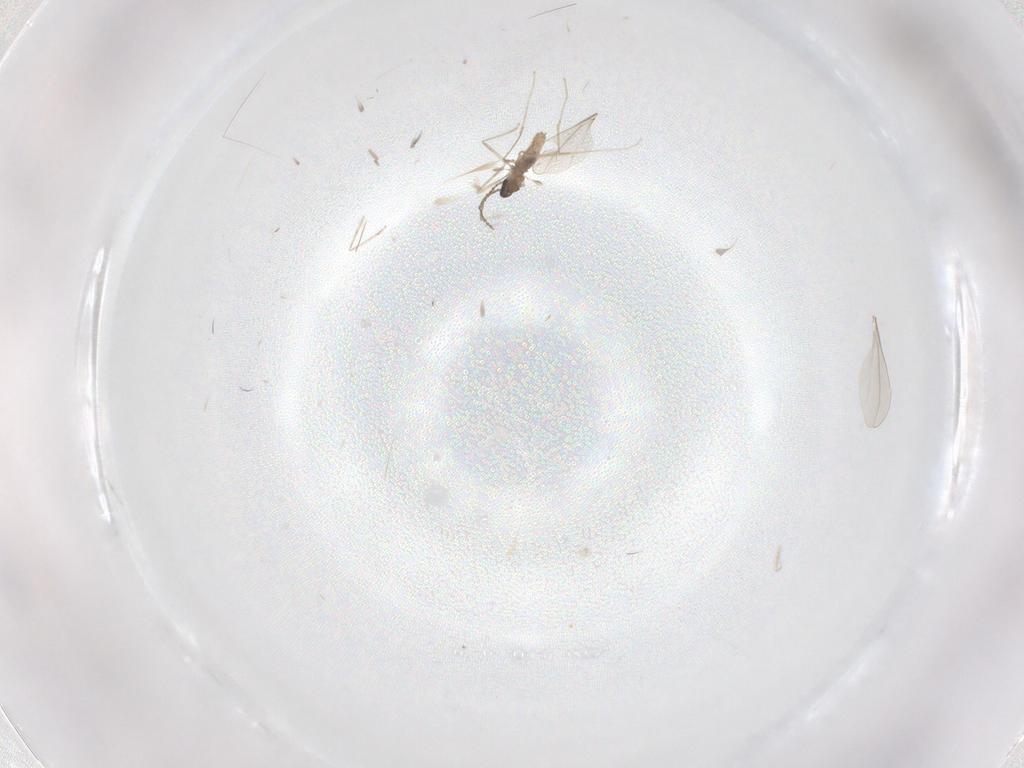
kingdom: Animalia
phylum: Arthropoda
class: Insecta
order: Diptera
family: Cecidomyiidae
